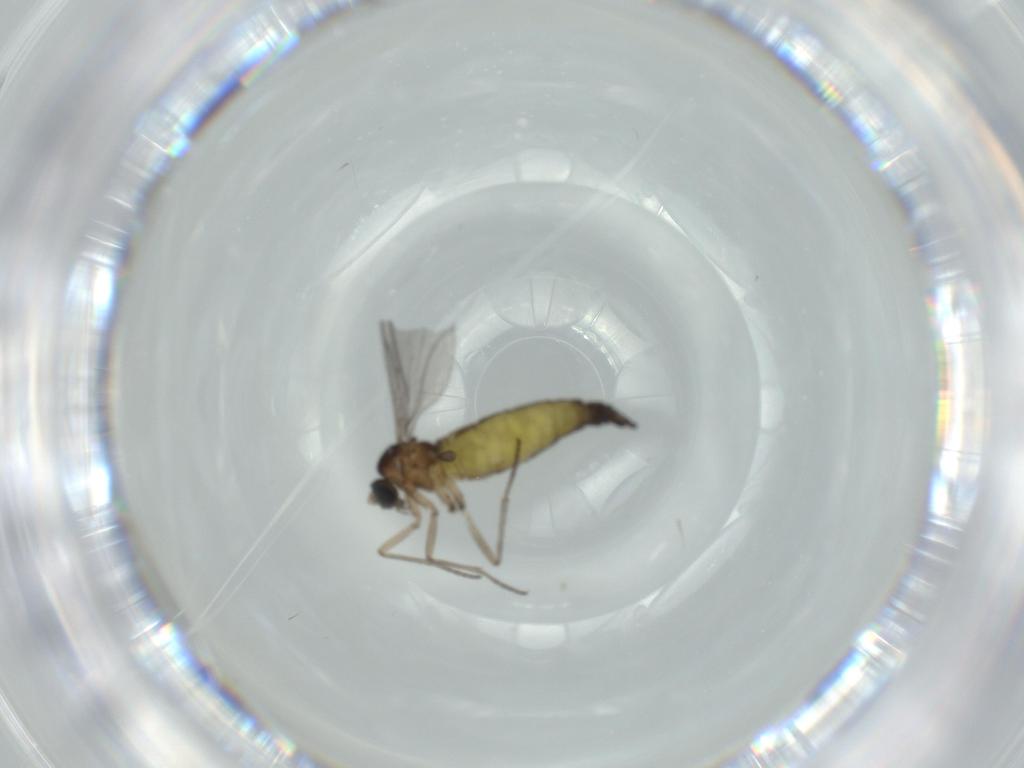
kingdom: Animalia
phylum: Arthropoda
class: Insecta
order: Diptera
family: Sciaridae
